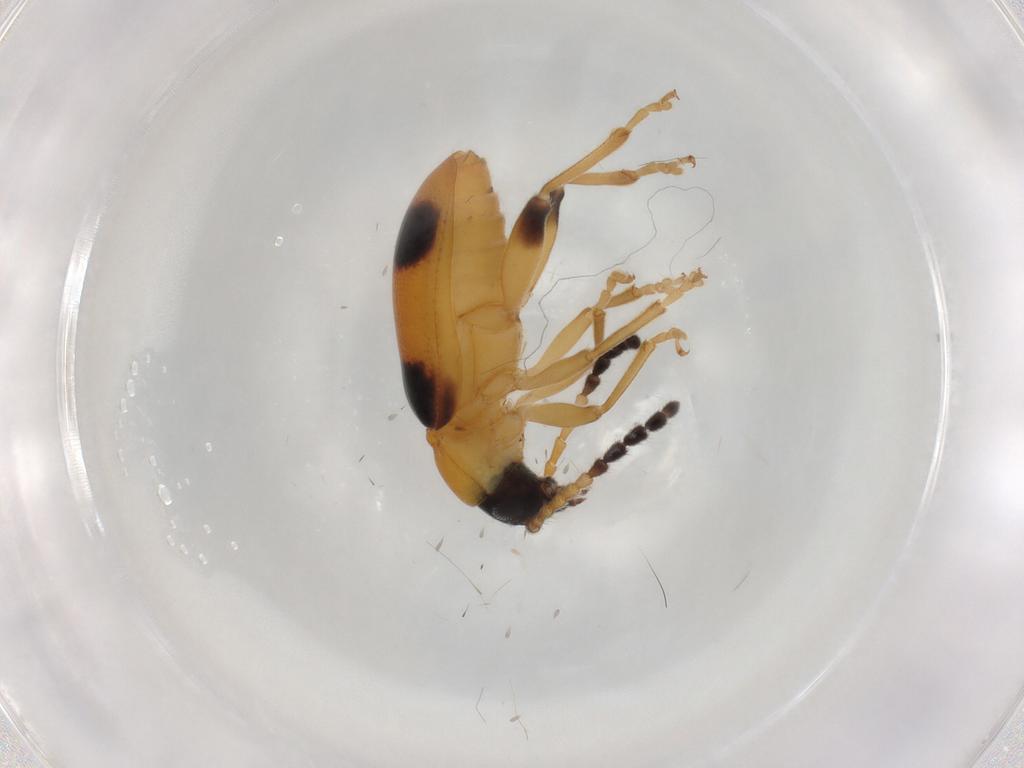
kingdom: Animalia
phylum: Arthropoda
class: Insecta
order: Coleoptera
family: Chrysomelidae
